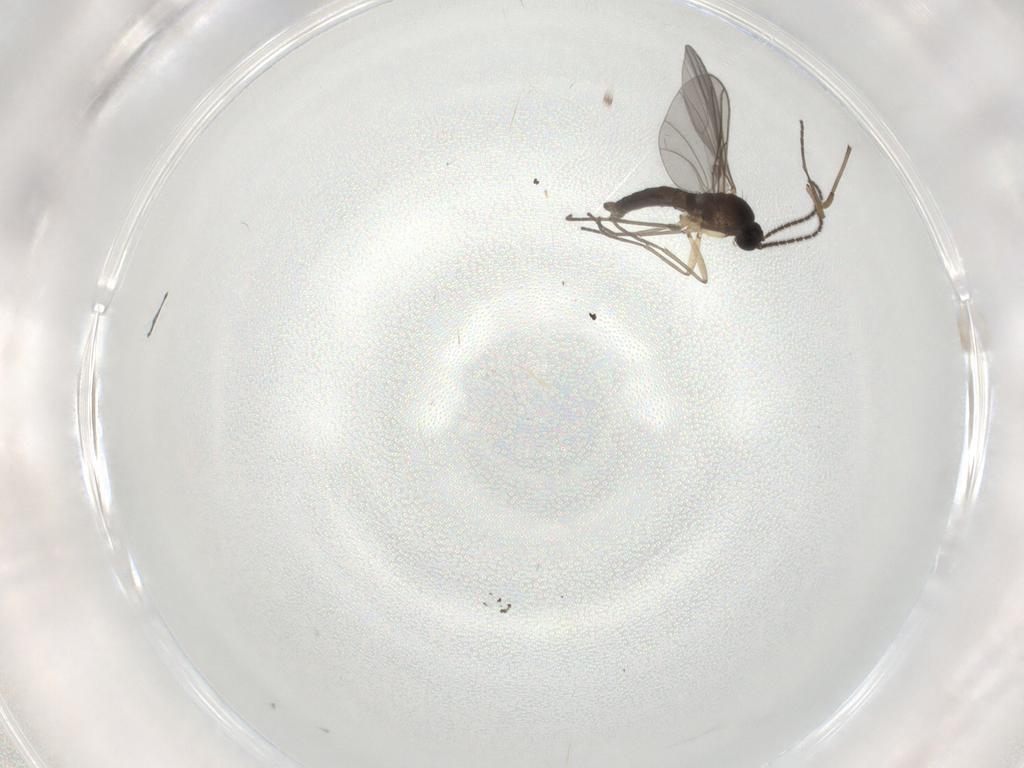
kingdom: Animalia
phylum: Arthropoda
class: Insecta
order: Diptera
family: Sciaridae
